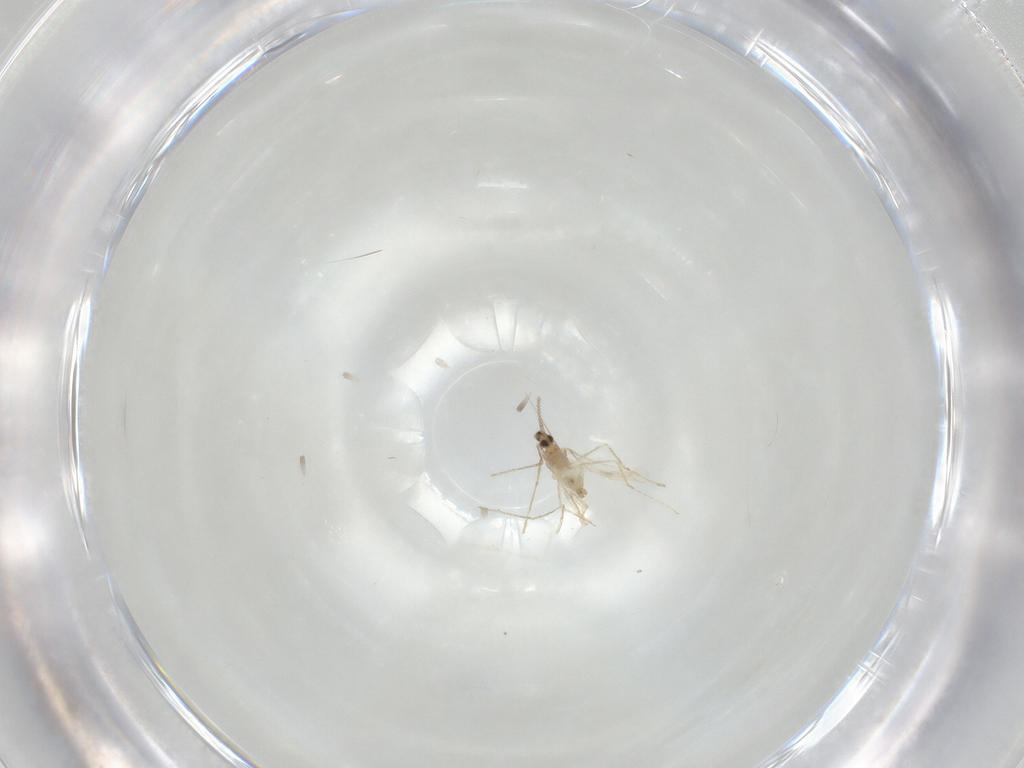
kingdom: Animalia
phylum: Arthropoda
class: Insecta
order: Diptera
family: Cecidomyiidae
